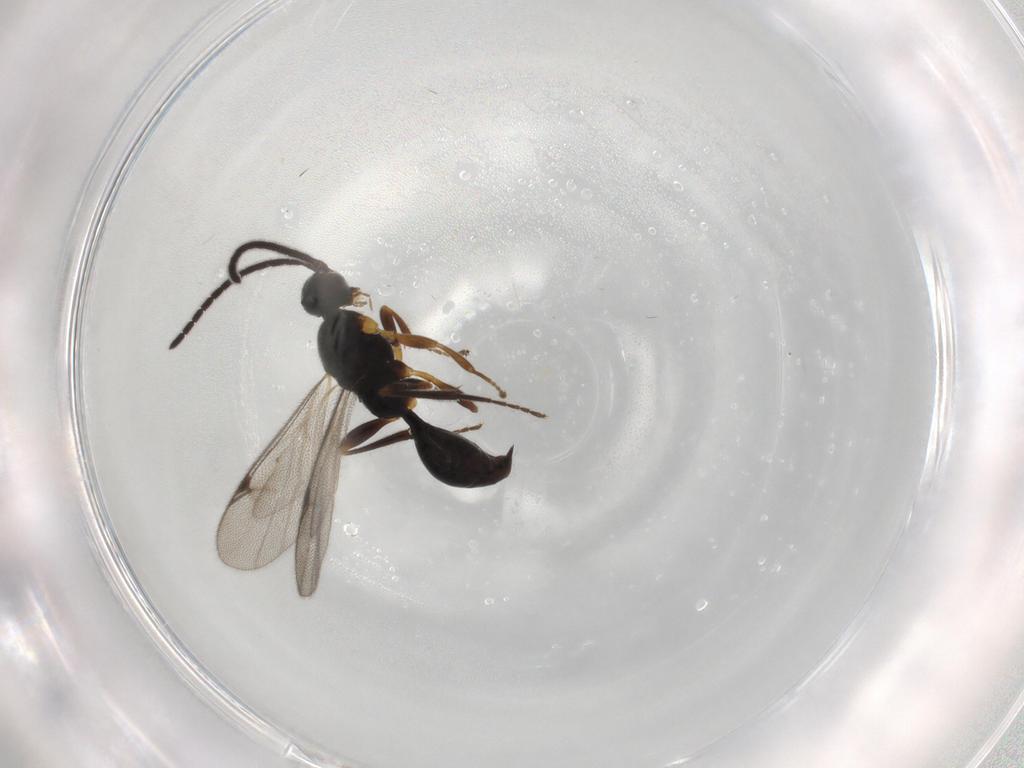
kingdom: Animalia
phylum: Arthropoda
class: Insecta
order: Hymenoptera
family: Proctotrupidae
